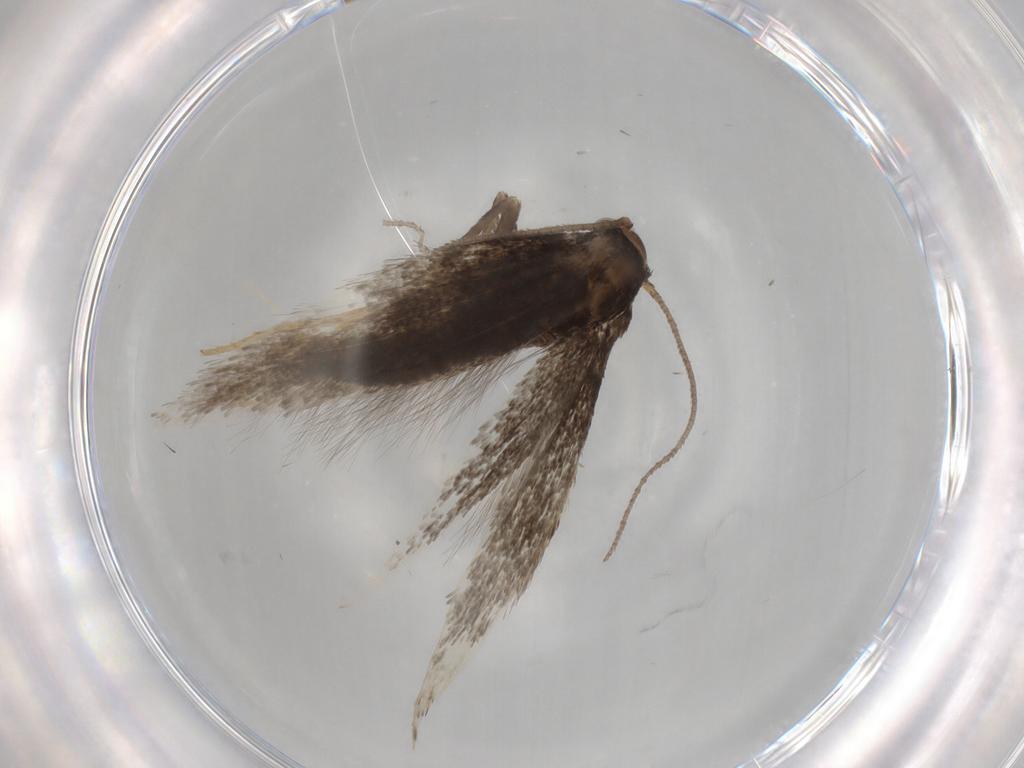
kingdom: Animalia
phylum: Arthropoda
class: Insecta
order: Lepidoptera
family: Elachistidae
